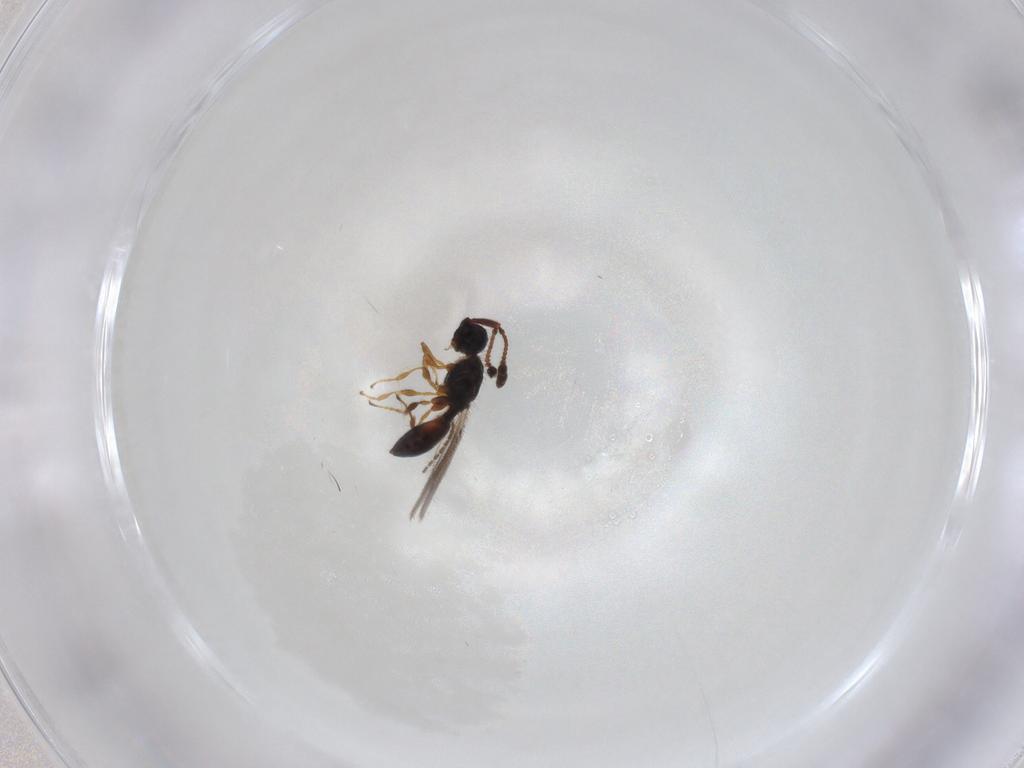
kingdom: Animalia
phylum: Arthropoda
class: Insecta
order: Hymenoptera
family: Diapriidae
